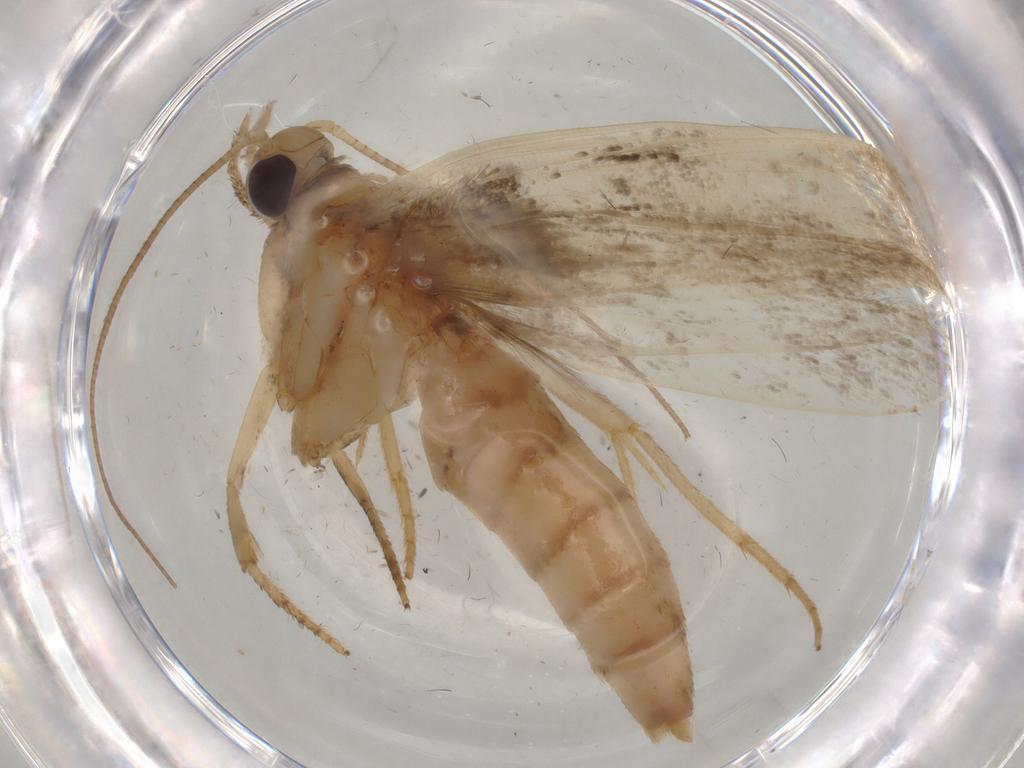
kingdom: Animalia
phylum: Arthropoda
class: Insecta
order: Lepidoptera
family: Yponomeutidae
